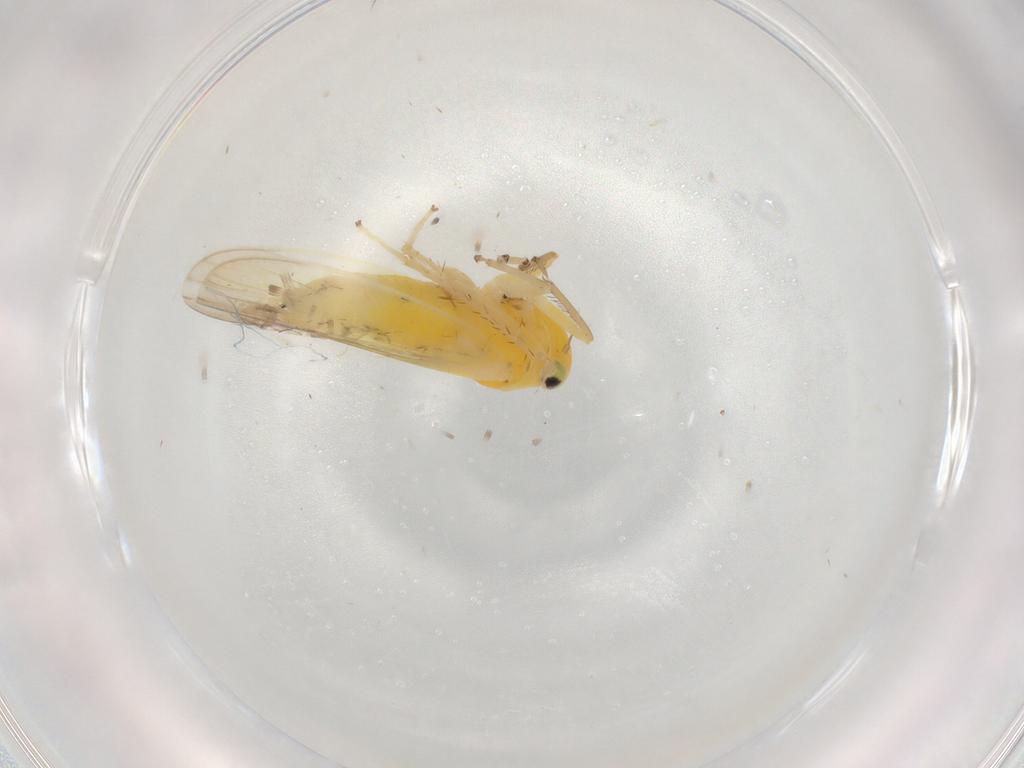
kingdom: Animalia
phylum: Arthropoda
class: Insecta
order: Hemiptera
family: Cicadellidae
